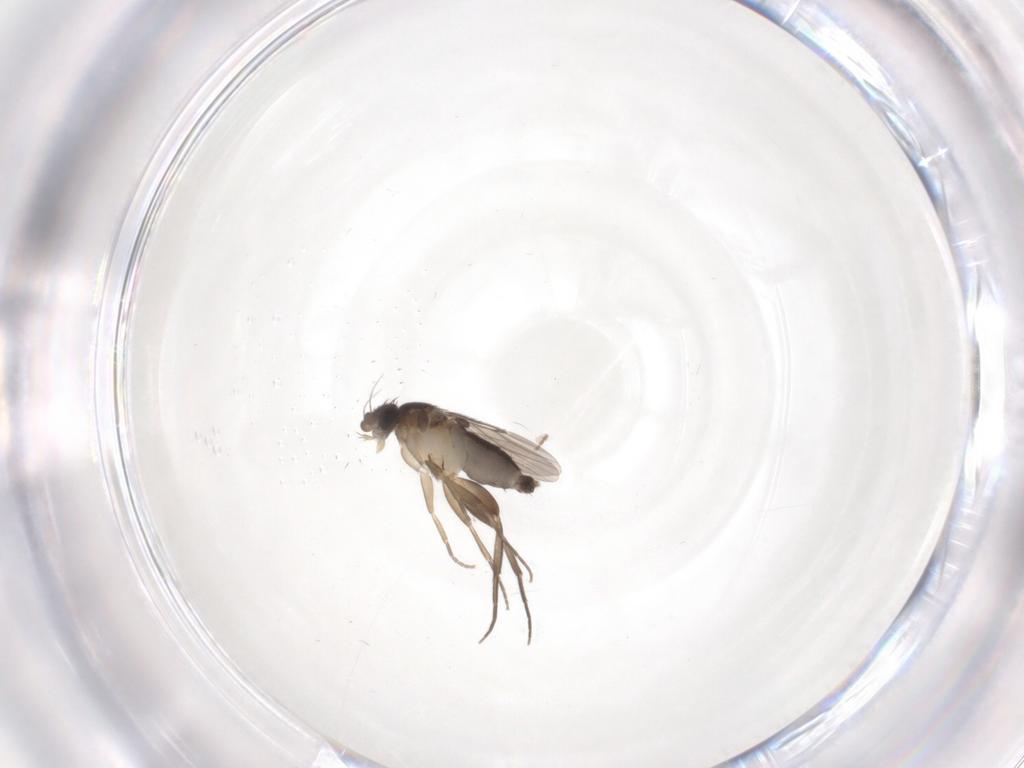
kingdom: Animalia
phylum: Arthropoda
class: Insecta
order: Diptera
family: Phoridae
